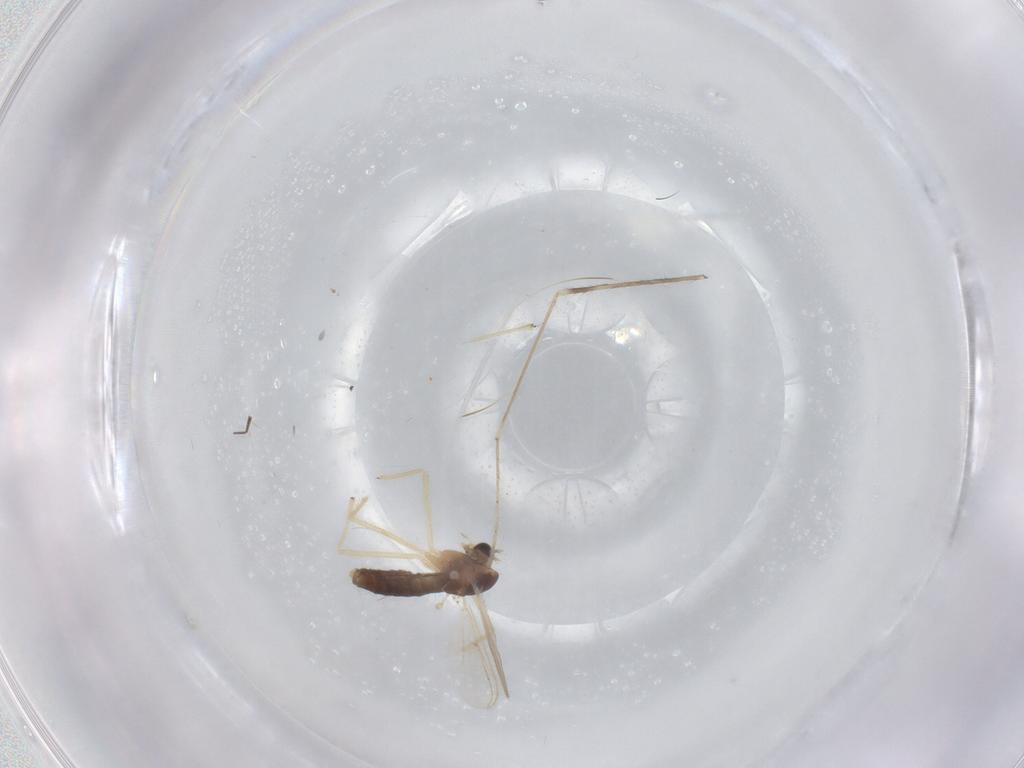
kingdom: Animalia
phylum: Arthropoda
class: Insecta
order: Diptera
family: Chironomidae
